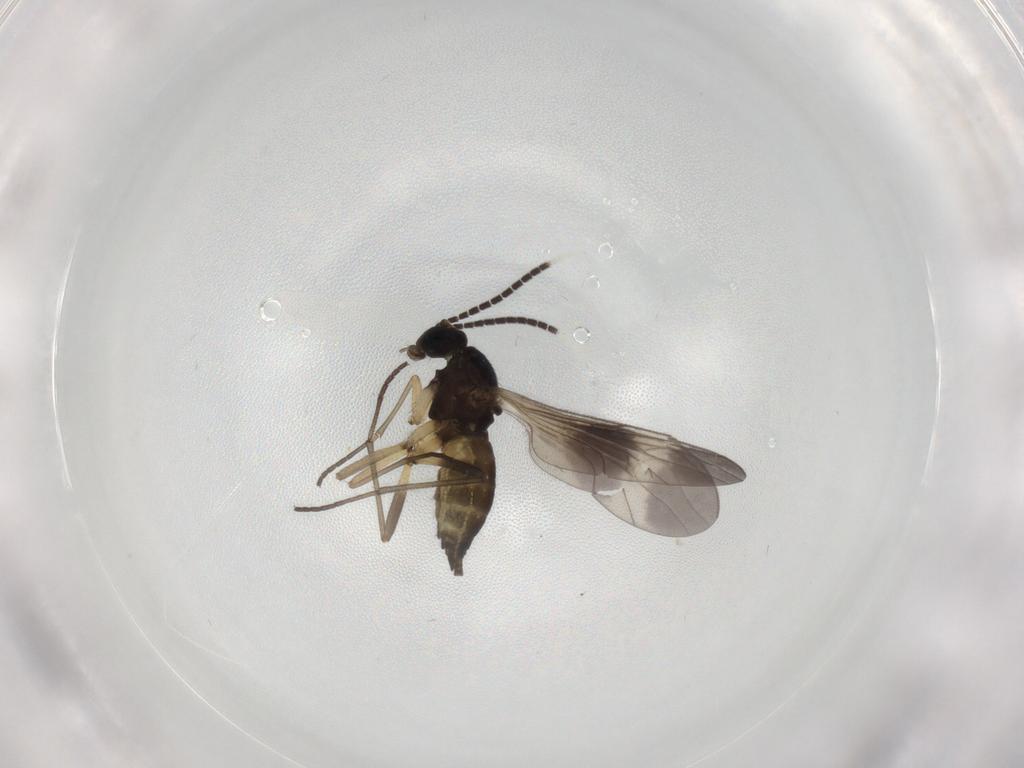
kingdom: Animalia
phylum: Arthropoda
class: Insecta
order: Diptera
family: Sciaridae
